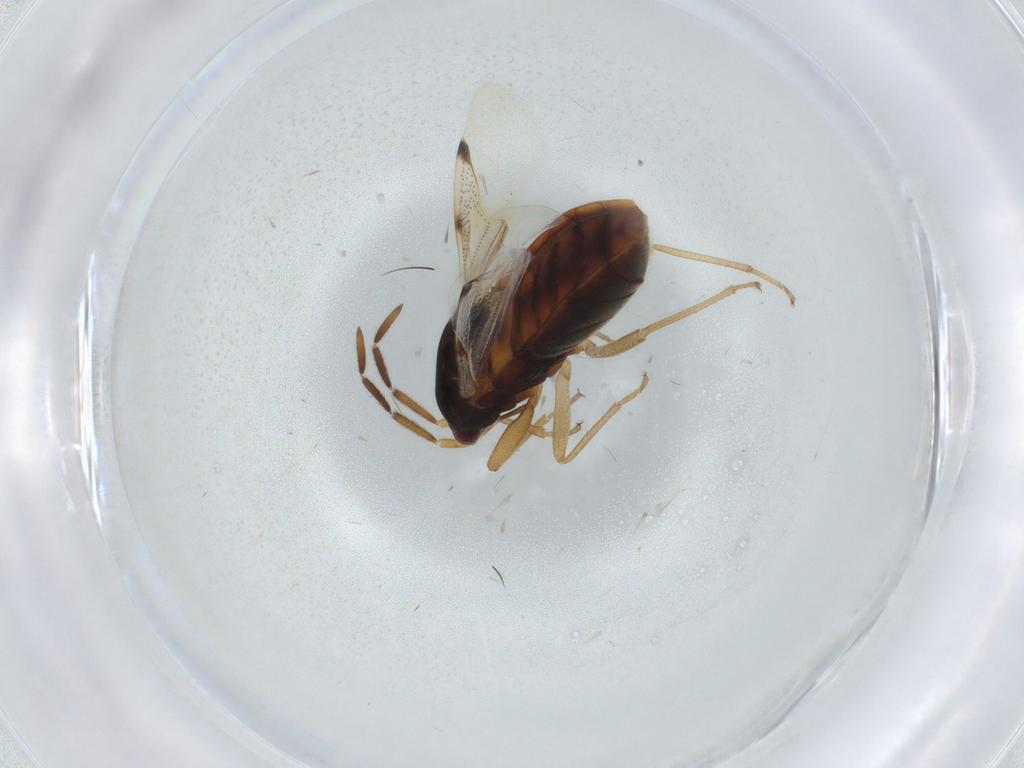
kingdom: Animalia
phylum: Arthropoda
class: Insecta
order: Hemiptera
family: Rhyparochromidae
